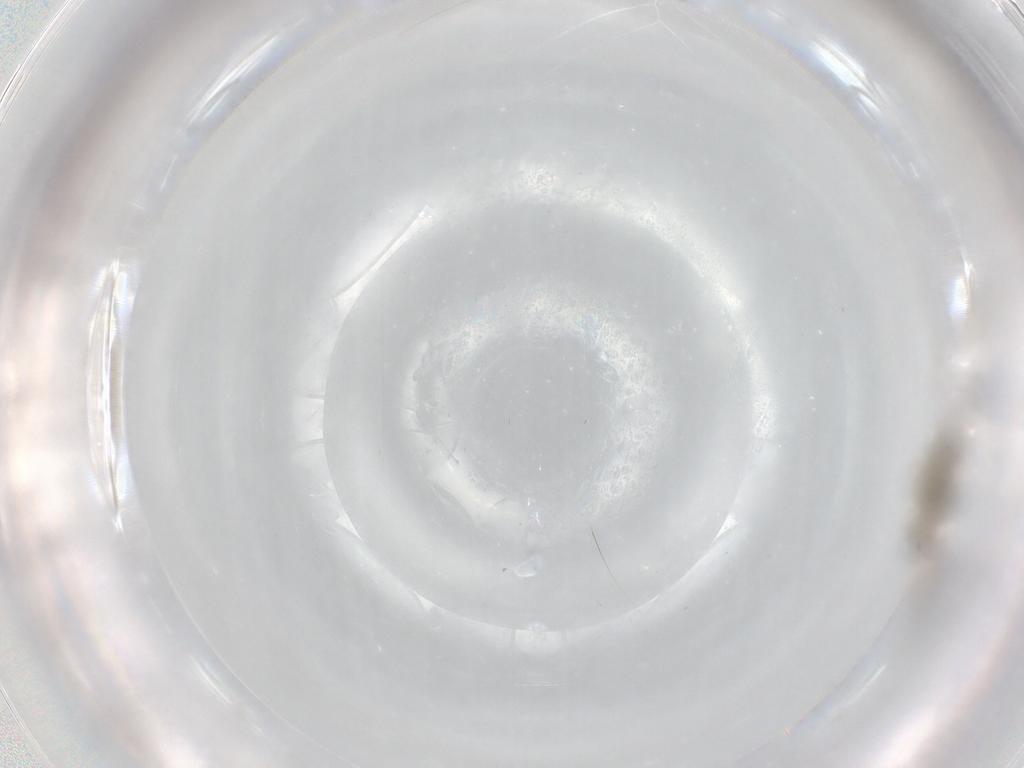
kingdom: Animalia
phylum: Arthropoda
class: Insecta
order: Diptera
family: Cecidomyiidae
